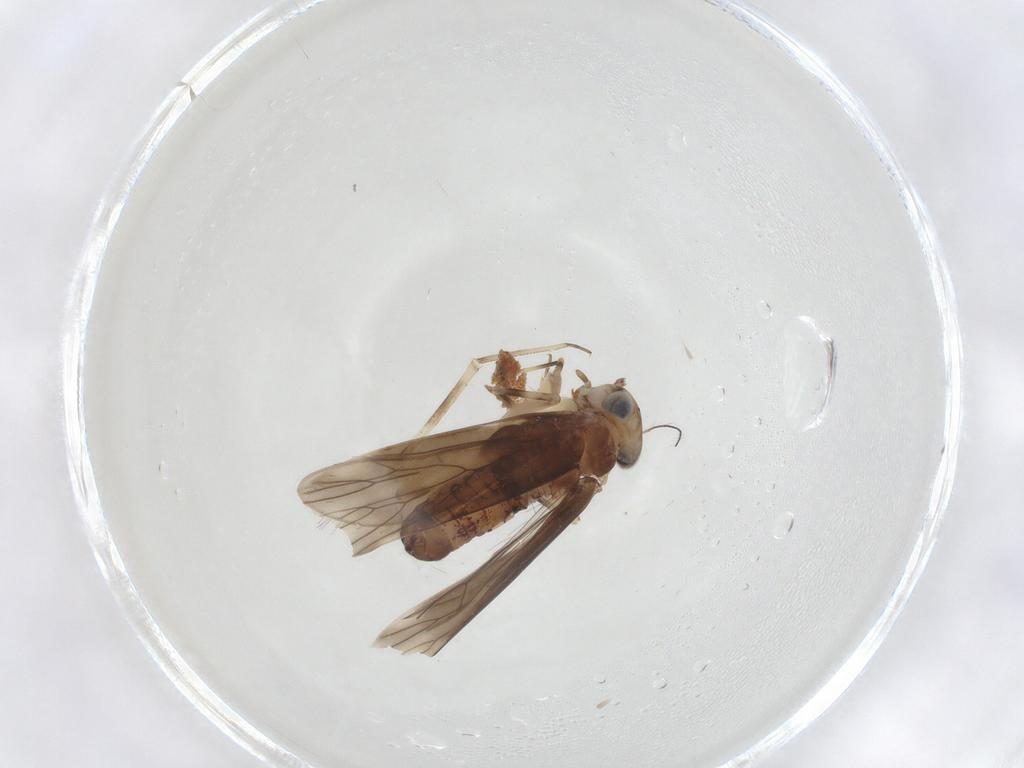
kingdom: Animalia
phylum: Arthropoda
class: Insecta
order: Psocodea
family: Amphientomidae
